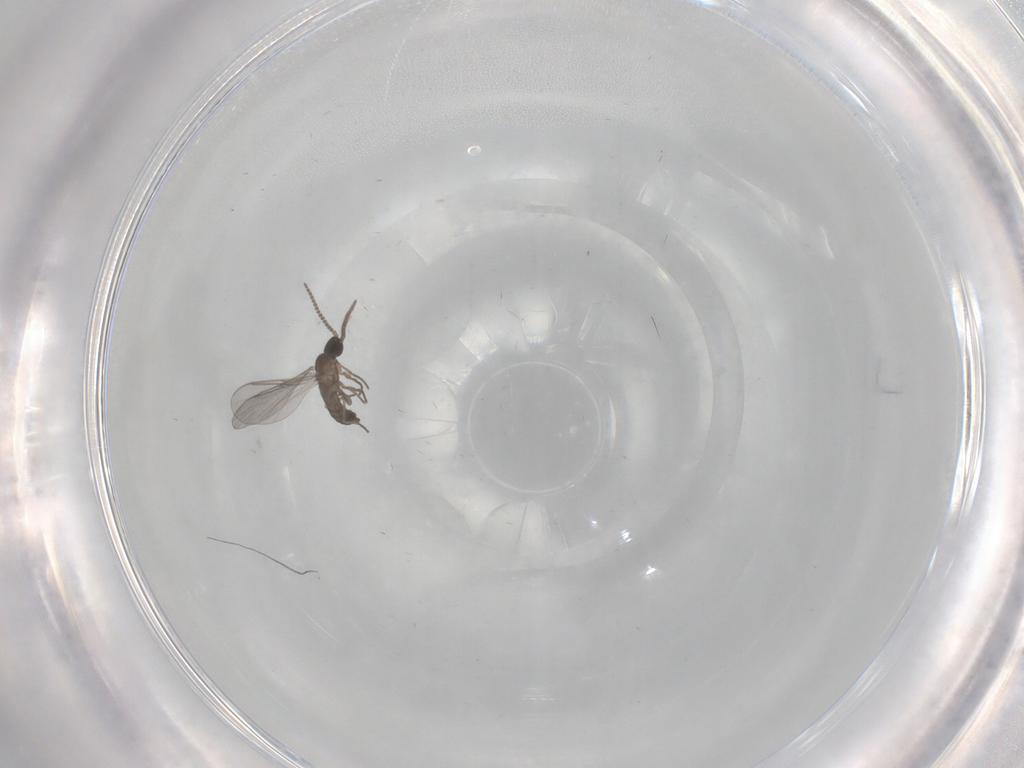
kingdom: Animalia
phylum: Arthropoda
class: Insecta
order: Diptera
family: Sciaridae
